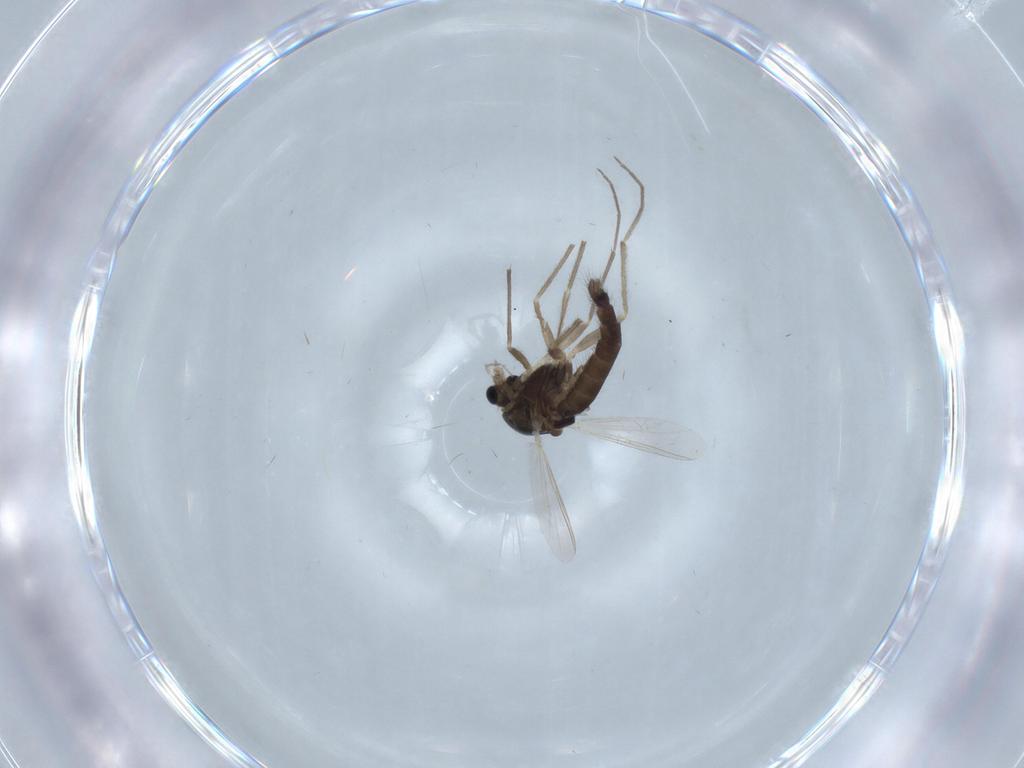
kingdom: Animalia
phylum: Arthropoda
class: Insecta
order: Diptera
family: Chironomidae
